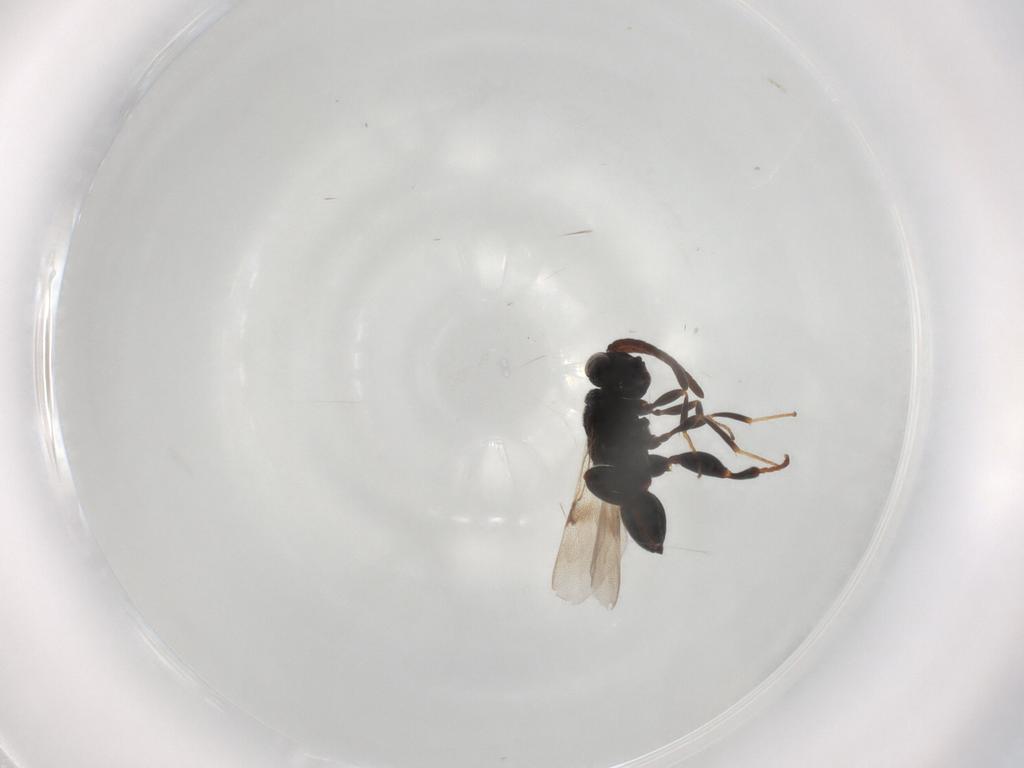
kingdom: Animalia
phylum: Arthropoda
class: Insecta
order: Hymenoptera
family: Chalcididae
